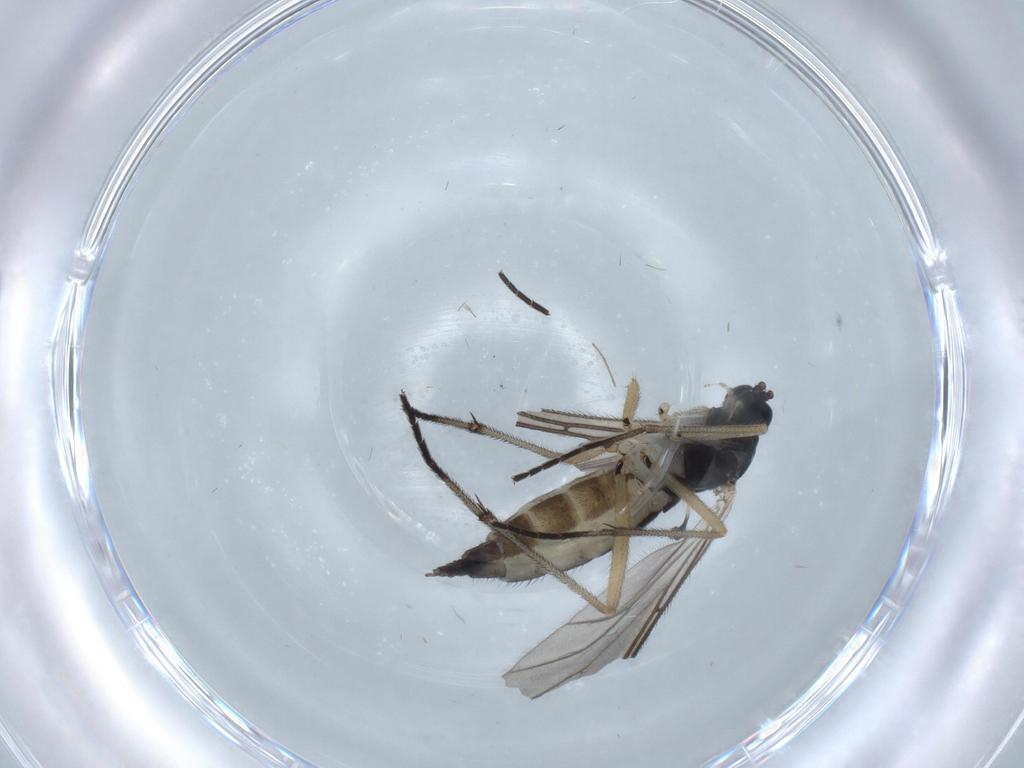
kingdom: Animalia
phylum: Arthropoda
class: Insecta
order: Diptera
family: Sciaridae
